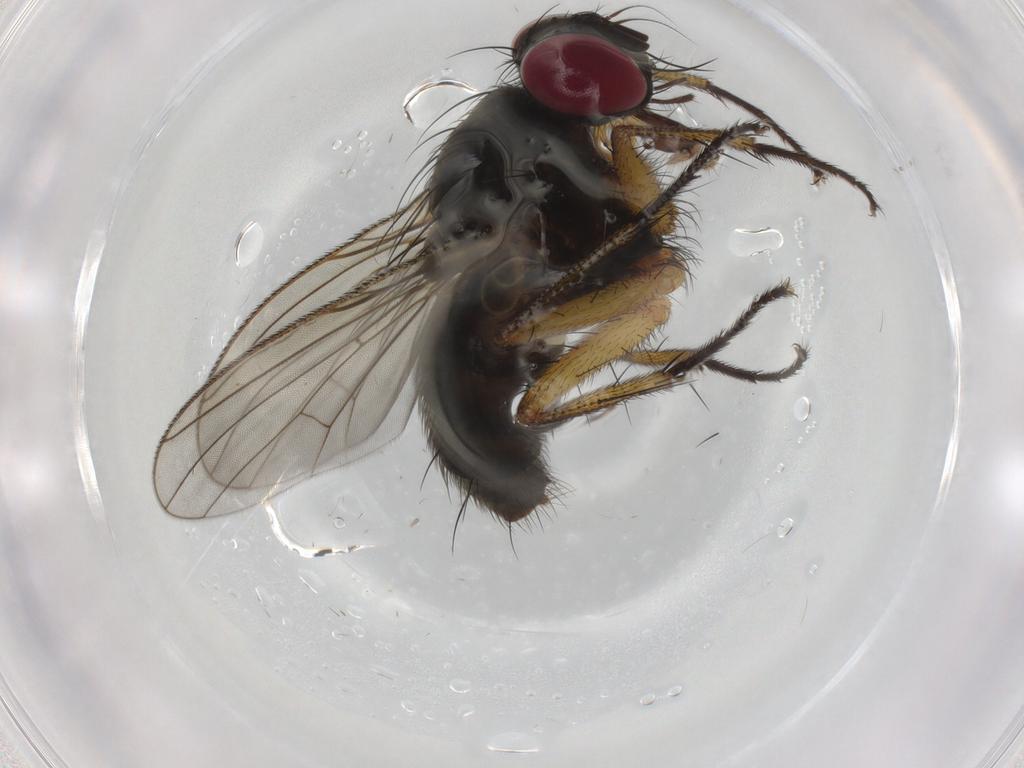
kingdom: Animalia
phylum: Arthropoda
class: Insecta
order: Diptera
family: Muscidae
